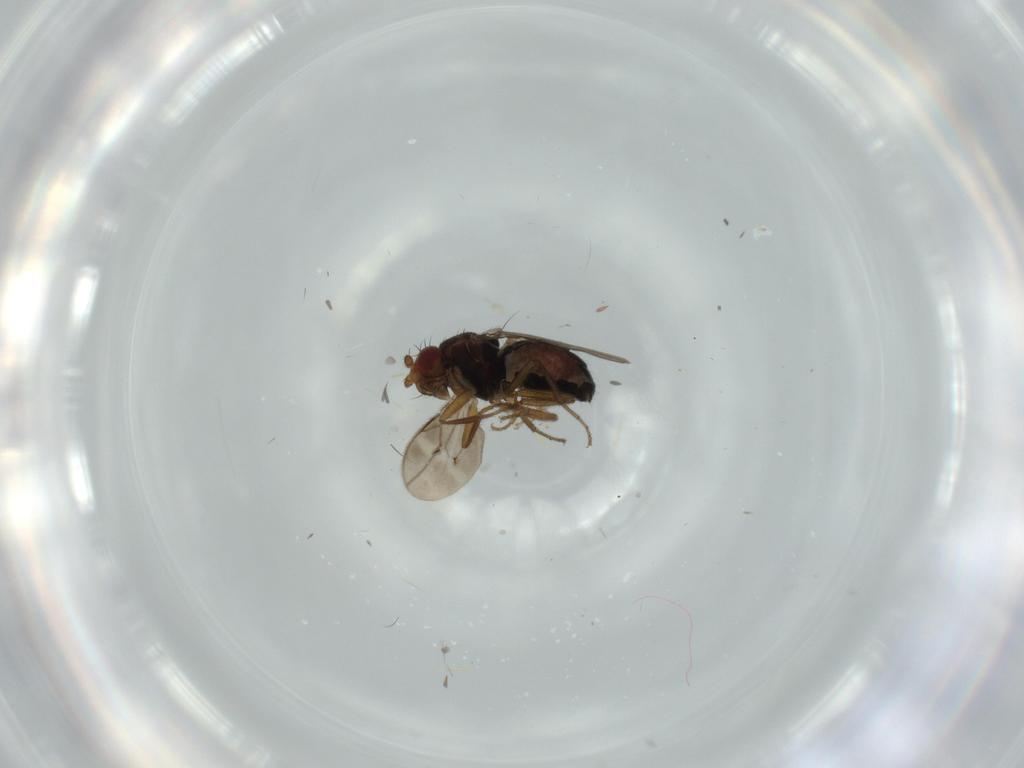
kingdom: Animalia
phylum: Arthropoda
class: Insecta
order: Diptera
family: Sphaeroceridae
